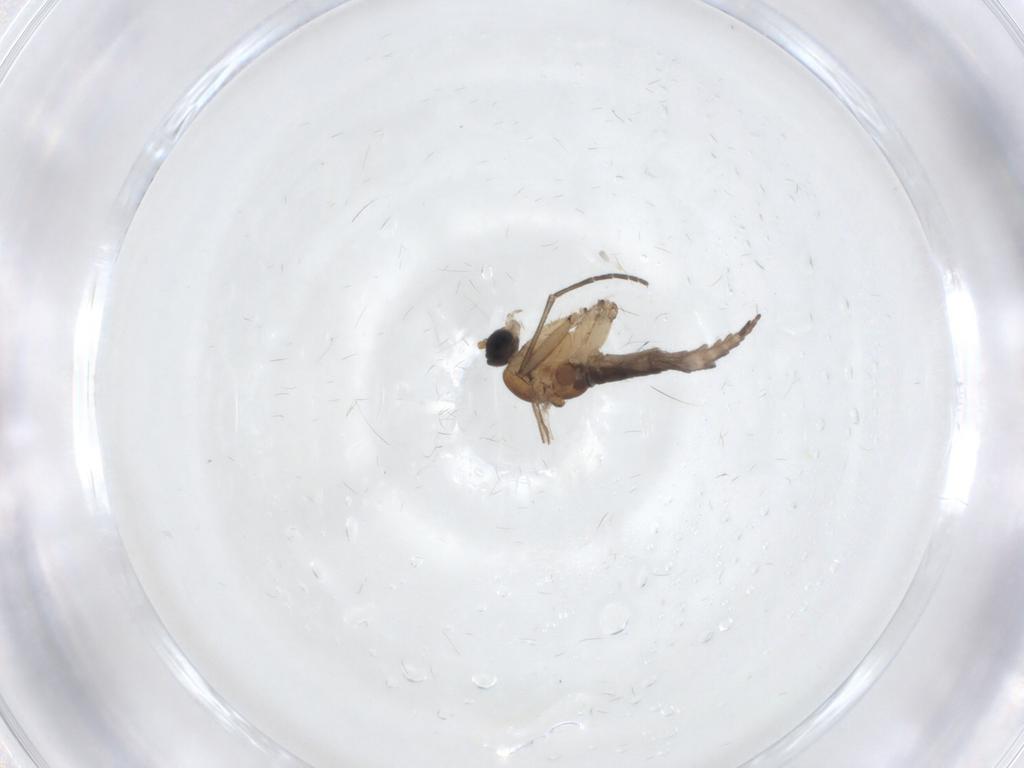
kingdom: Animalia
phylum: Arthropoda
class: Insecta
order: Diptera
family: Sciaridae
